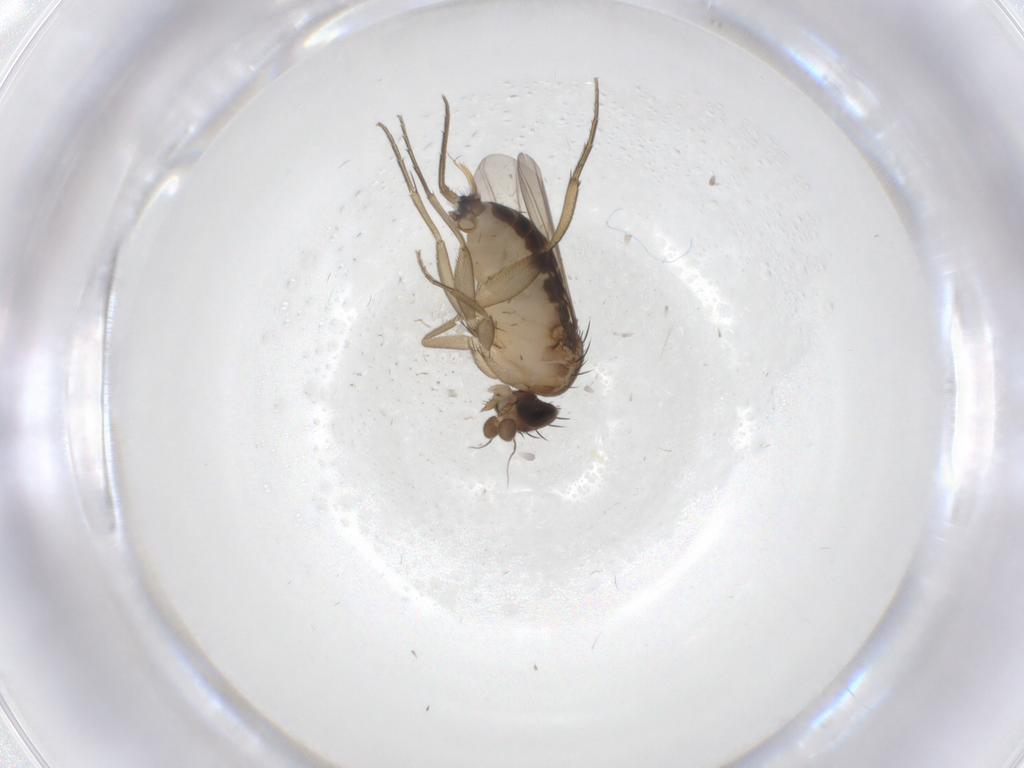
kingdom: Animalia
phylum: Arthropoda
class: Insecta
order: Diptera
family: Phoridae
